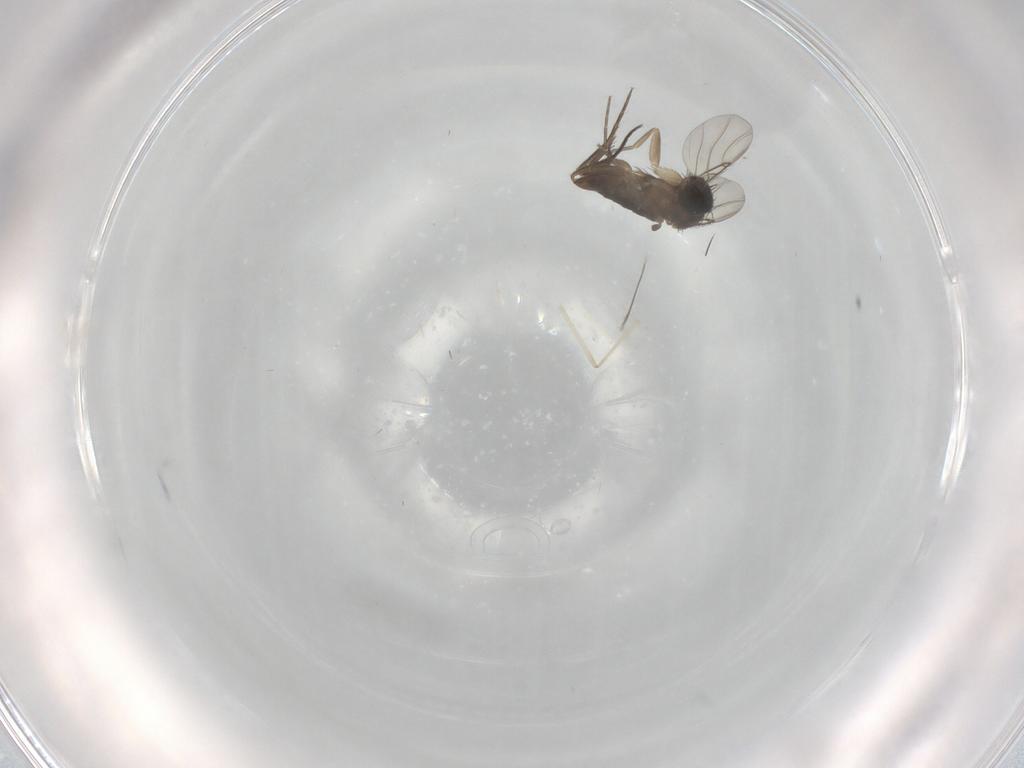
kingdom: Animalia
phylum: Arthropoda
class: Insecta
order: Diptera
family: Cecidomyiidae
